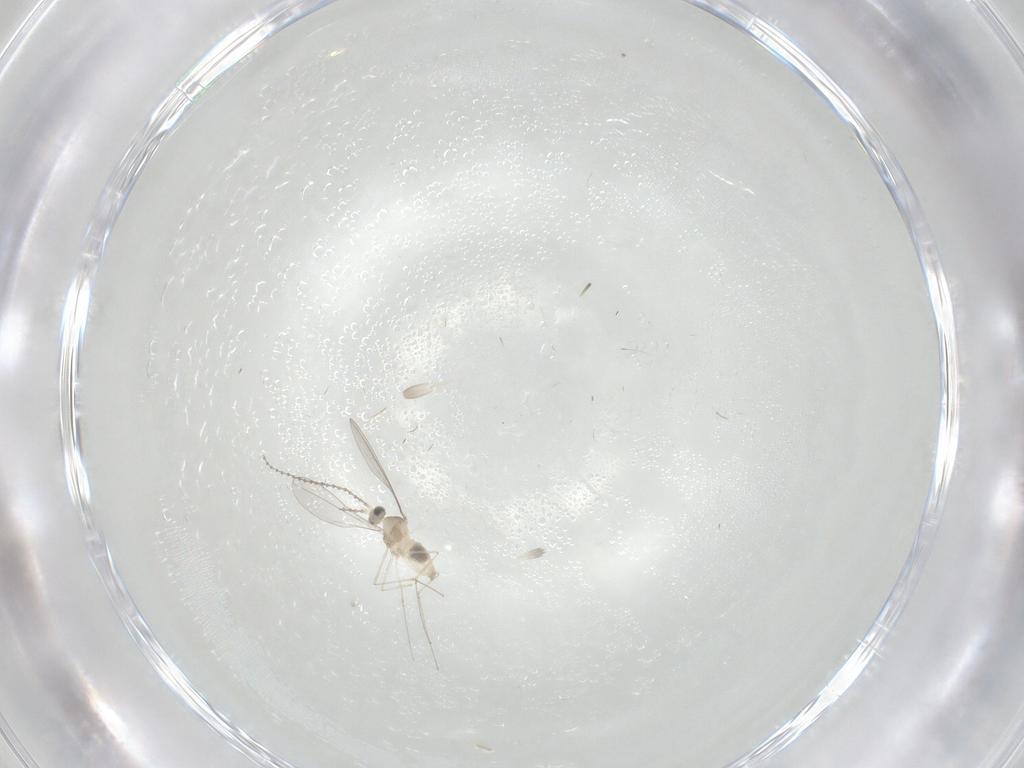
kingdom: Animalia
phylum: Arthropoda
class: Insecta
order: Diptera
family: Cecidomyiidae
